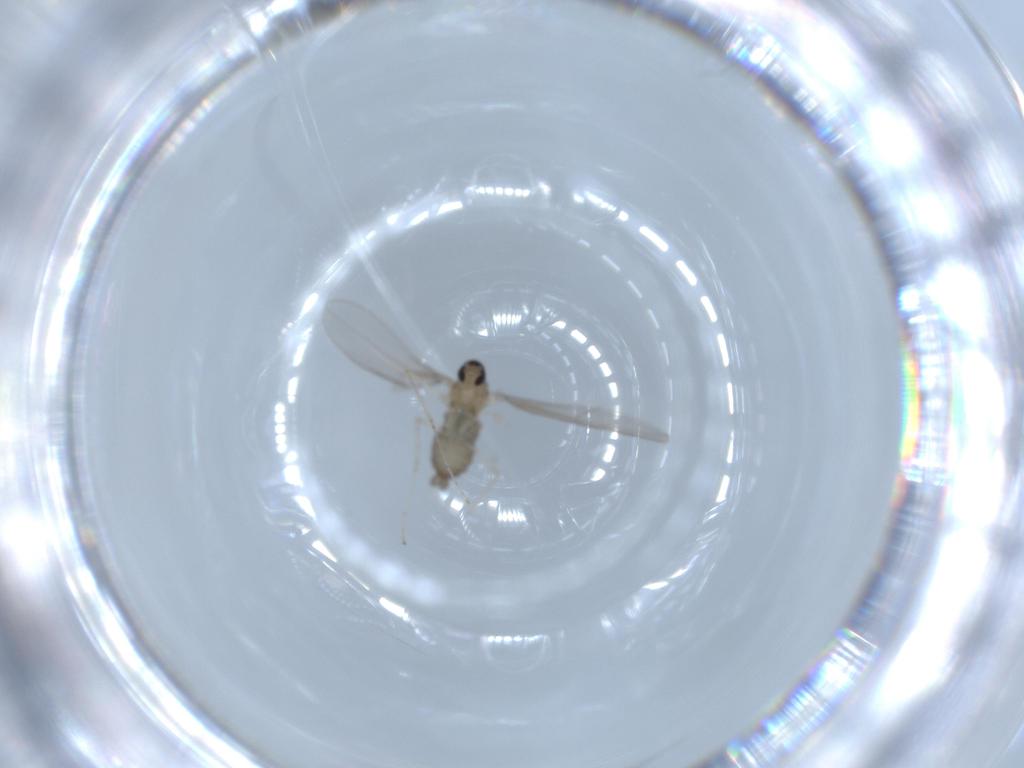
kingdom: Animalia
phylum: Arthropoda
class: Insecta
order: Diptera
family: Cecidomyiidae
